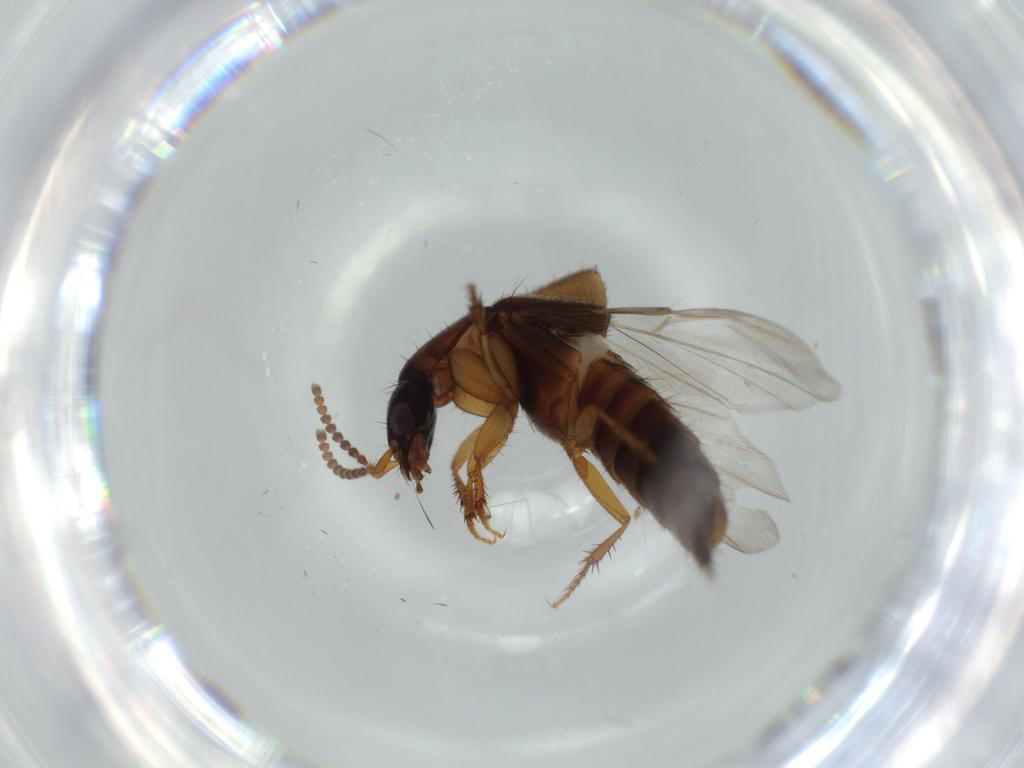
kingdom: Animalia
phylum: Arthropoda
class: Insecta
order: Coleoptera
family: Staphylinidae
